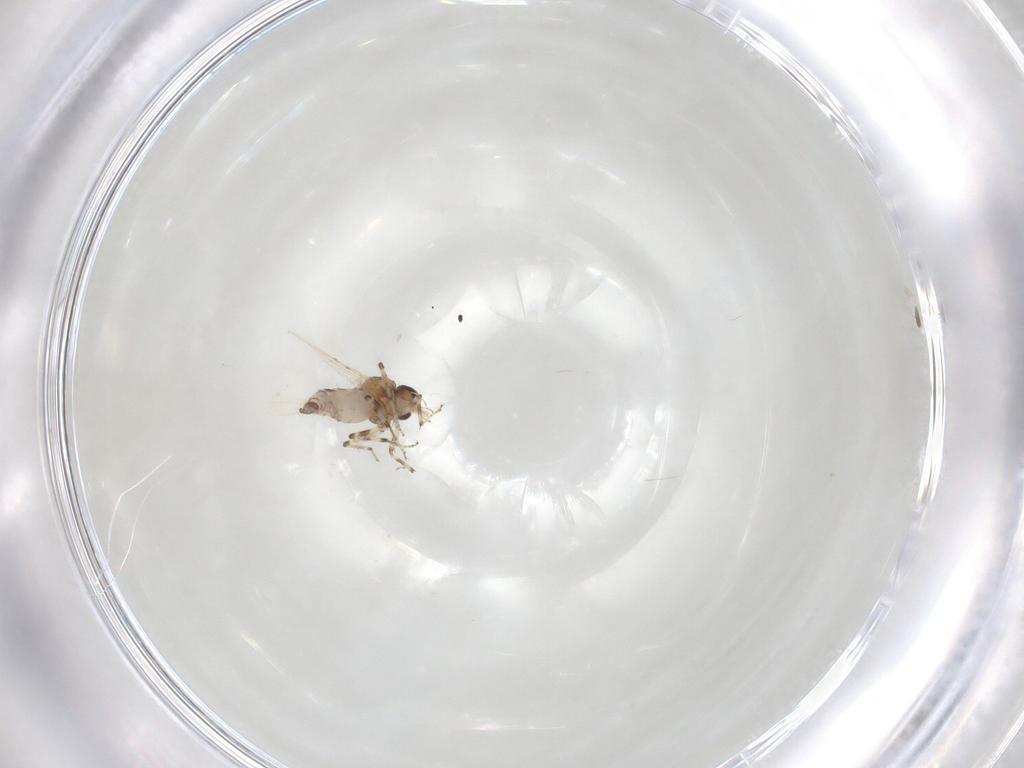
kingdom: Animalia
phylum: Arthropoda
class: Insecta
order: Diptera
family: Ceratopogonidae
